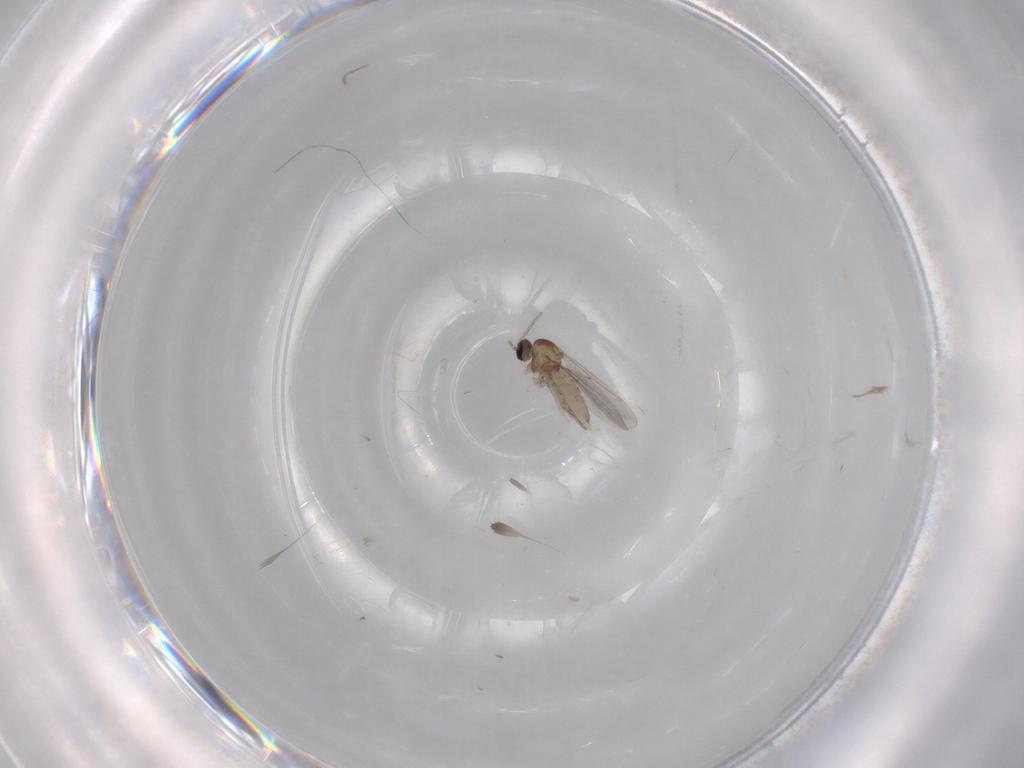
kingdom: Animalia
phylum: Arthropoda
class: Insecta
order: Diptera
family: Cecidomyiidae
